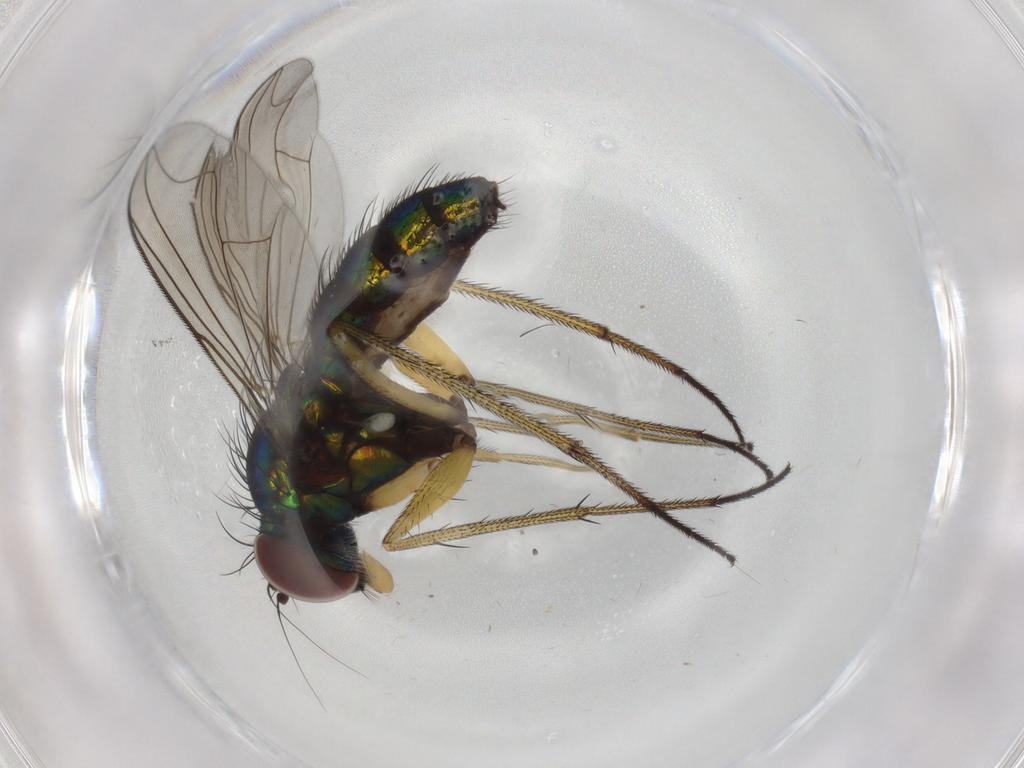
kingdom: Animalia
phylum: Arthropoda
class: Insecta
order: Diptera
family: Dolichopodidae
